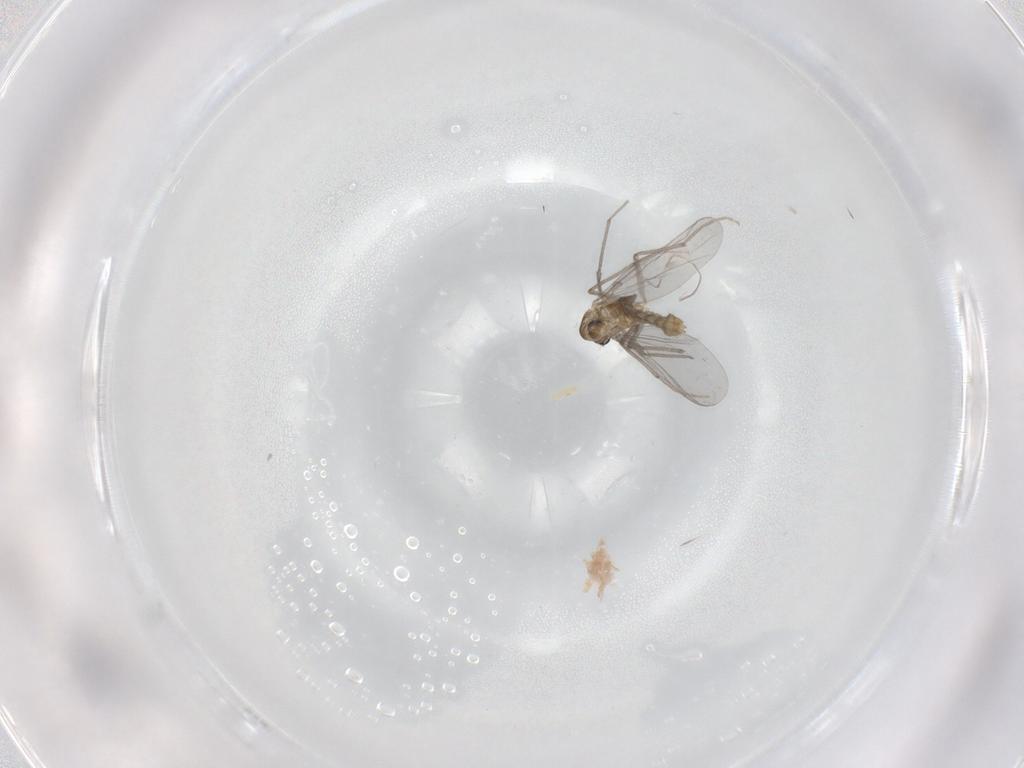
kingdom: Animalia
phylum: Arthropoda
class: Insecta
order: Diptera
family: Chironomidae
